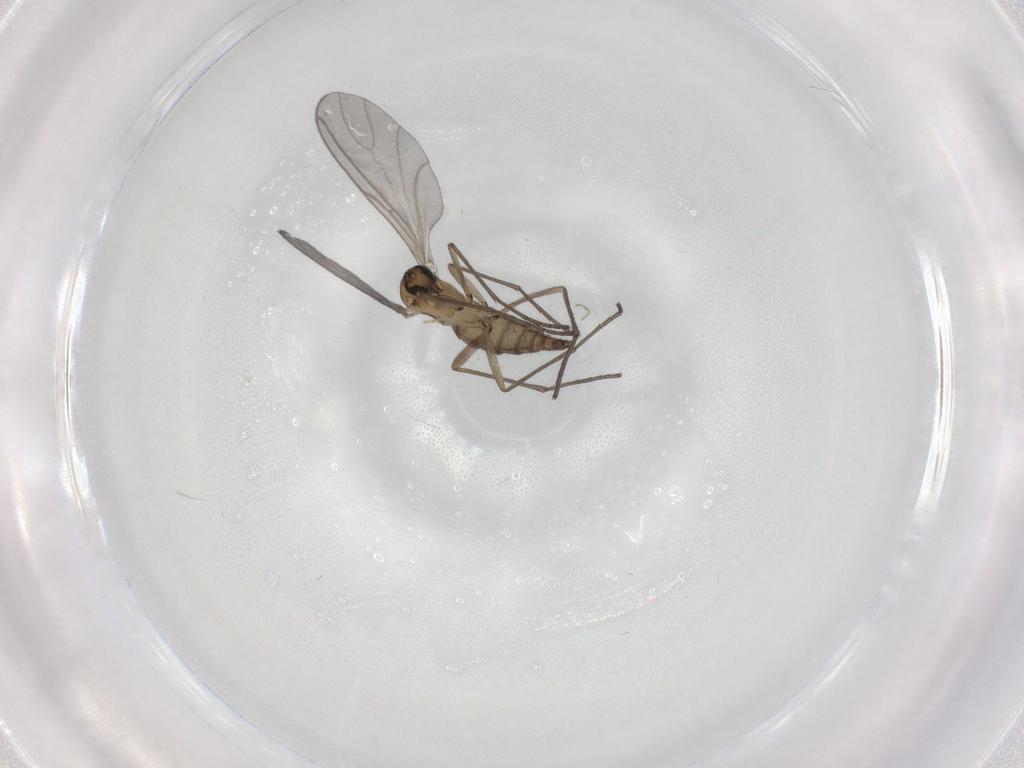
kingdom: Animalia
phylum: Arthropoda
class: Insecta
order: Diptera
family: Sciaridae
